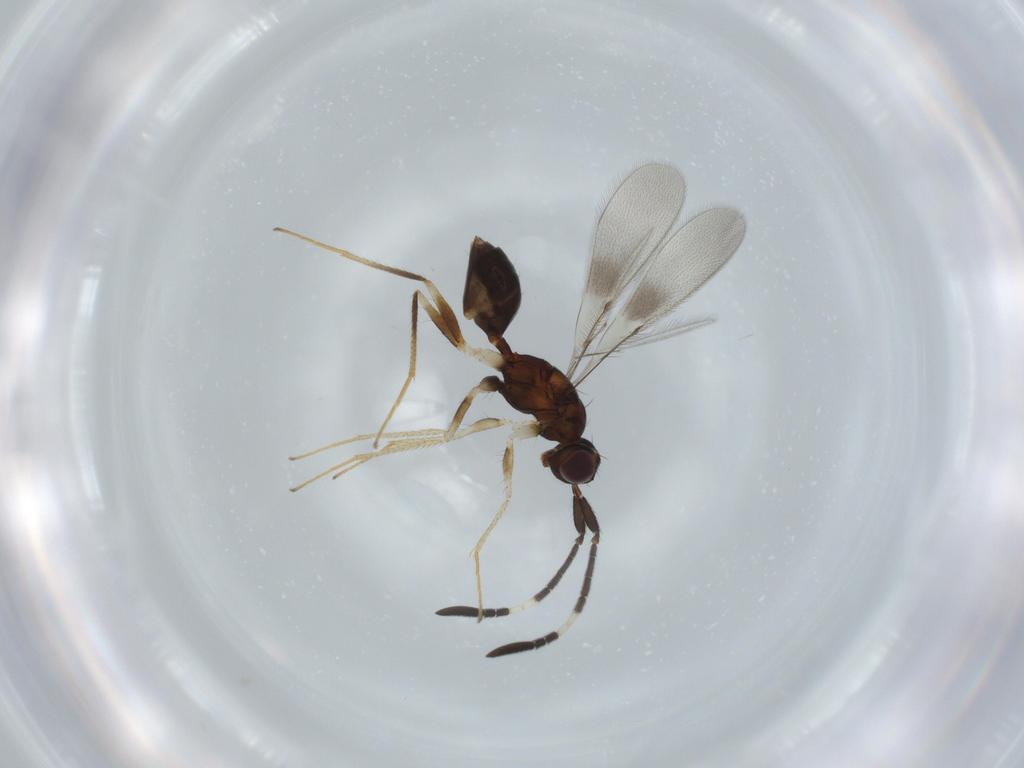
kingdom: Animalia
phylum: Arthropoda
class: Insecta
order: Hymenoptera
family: Mymaridae
